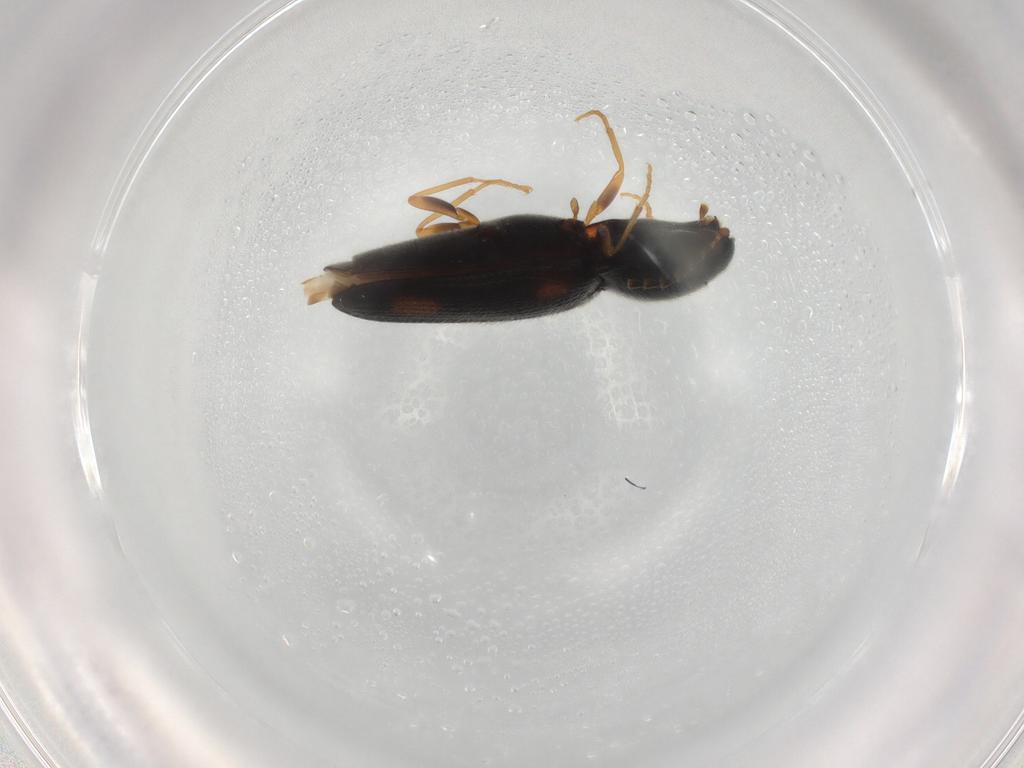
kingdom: Animalia
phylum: Arthropoda
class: Insecta
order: Coleoptera
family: Elateridae
